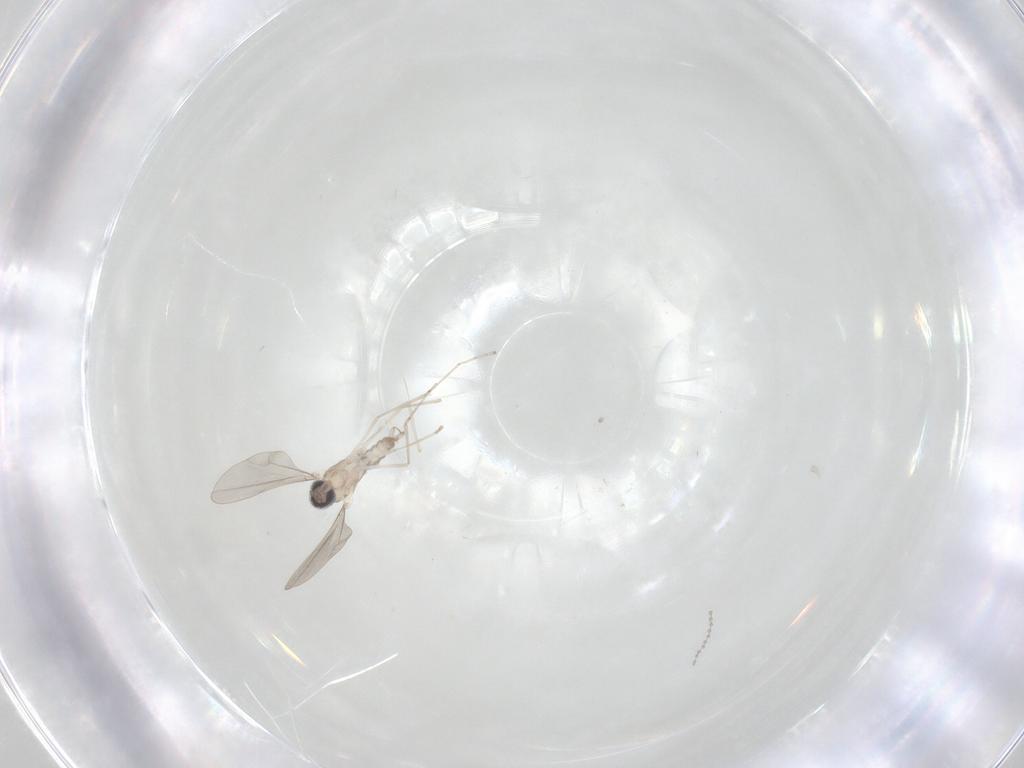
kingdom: Animalia
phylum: Arthropoda
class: Insecta
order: Diptera
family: Cecidomyiidae
